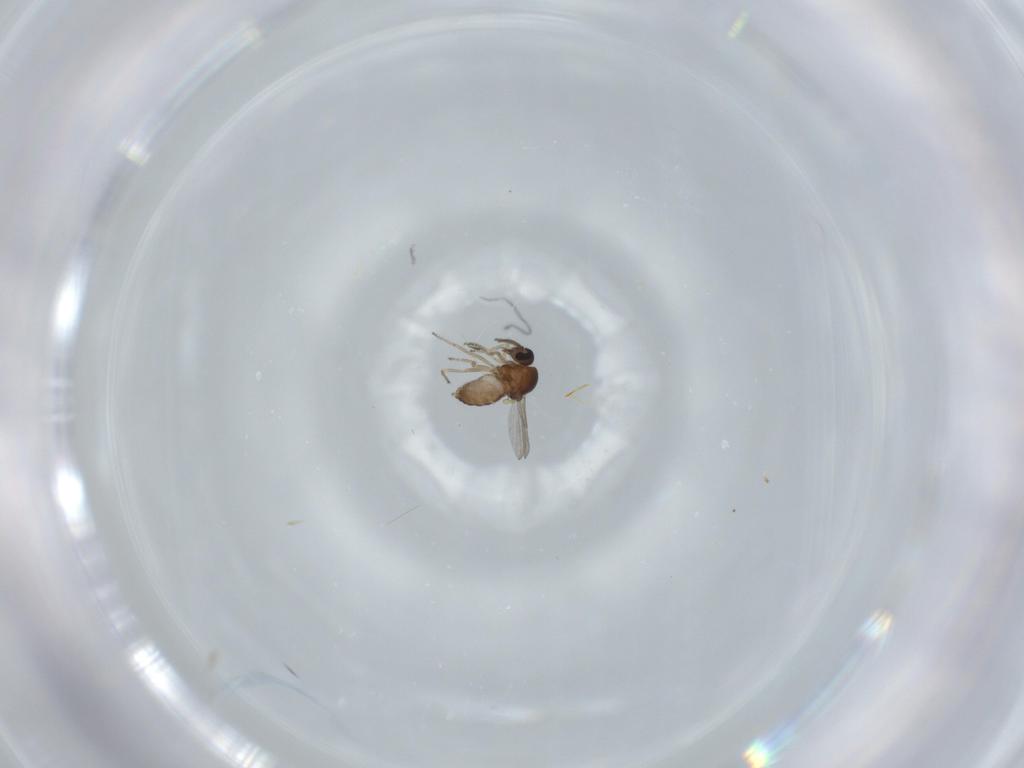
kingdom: Animalia
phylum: Arthropoda
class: Insecta
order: Diptera
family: Ceratopogonidae
